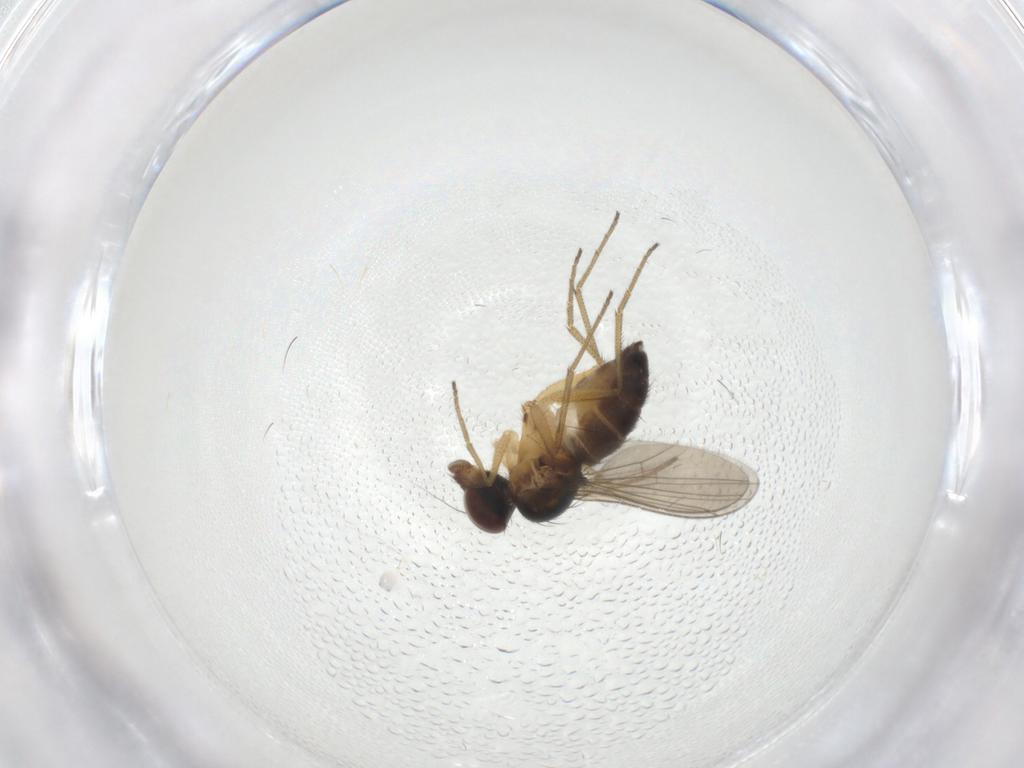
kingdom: Animalia
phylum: Arthropoda
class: Insecta
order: Diptera
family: Dolichopodidae
